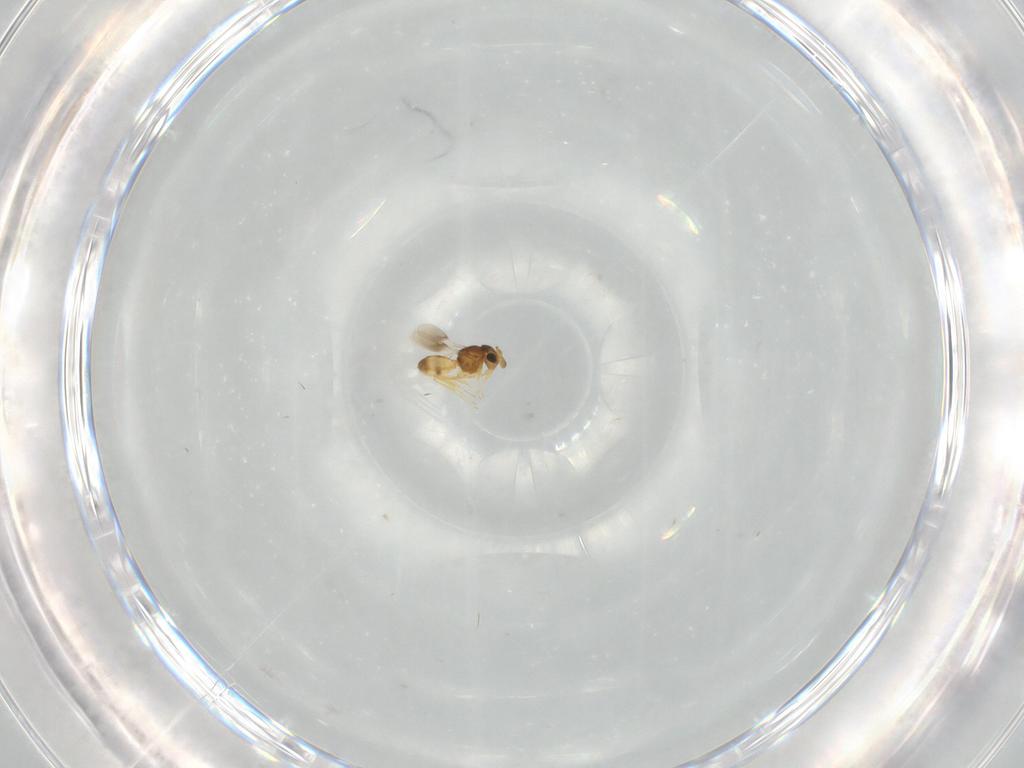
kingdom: Animalia
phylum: Arthropoda
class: Insecta
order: Hymenoptera
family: Scelionidae
